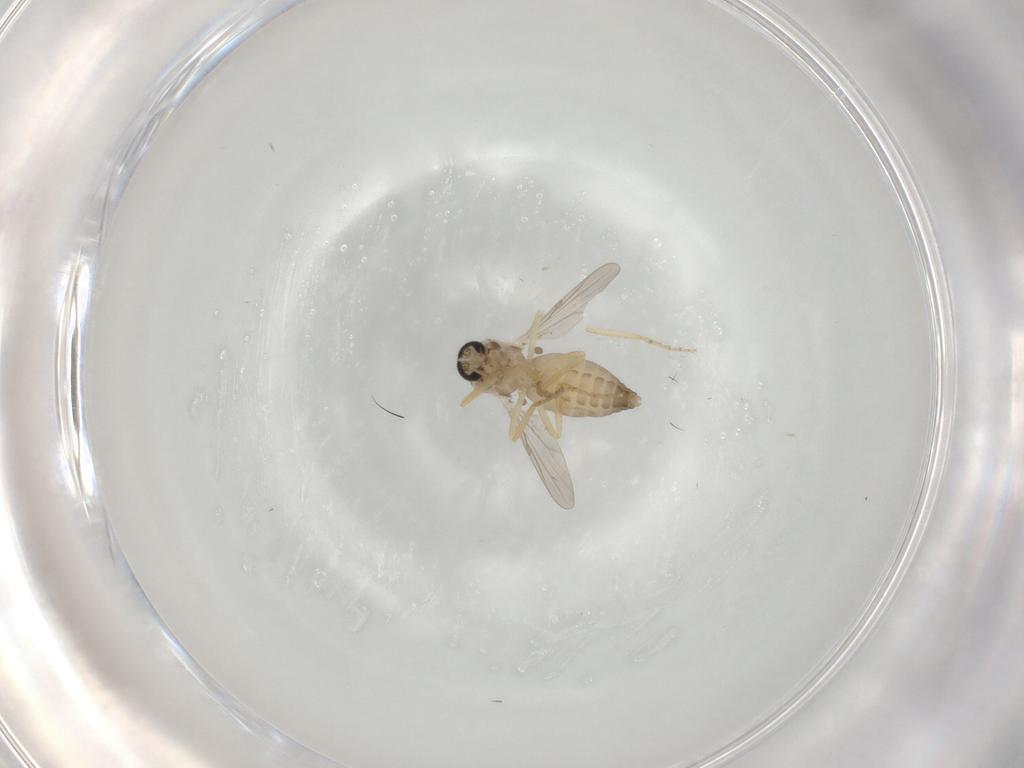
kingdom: Animalia
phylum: Arthropoda
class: Insecta
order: Diptera
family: Ceratopogonidae
